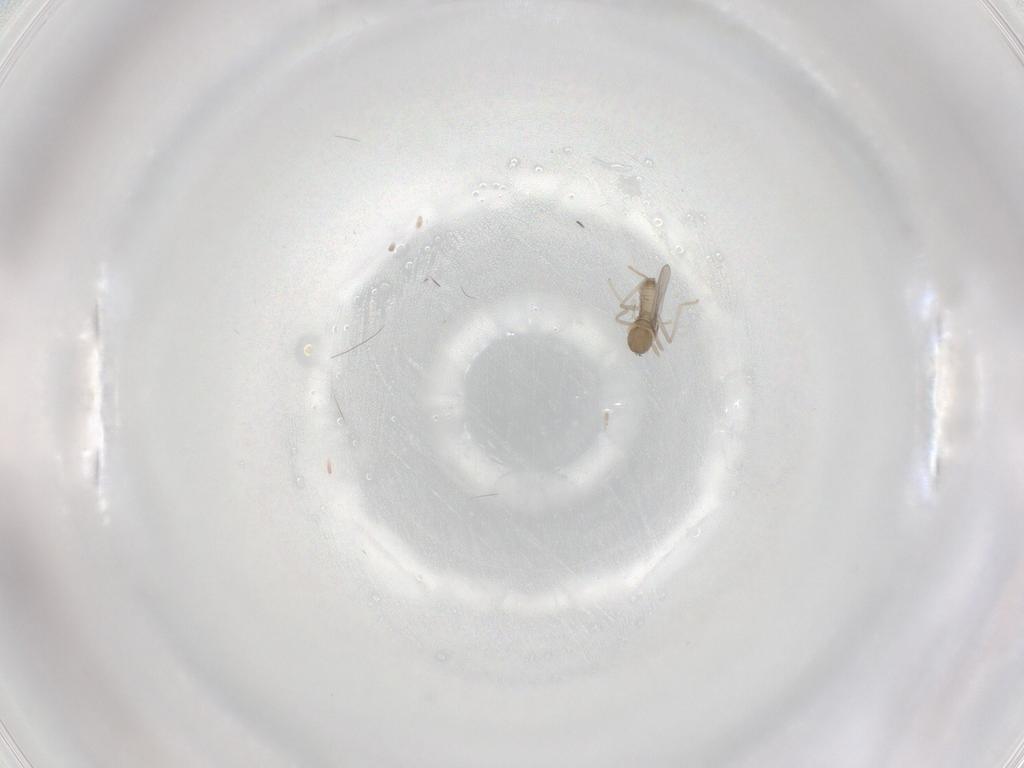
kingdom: Animalia
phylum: Arthropoda
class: Insecta
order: Diptera
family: Cecidomyiidae
